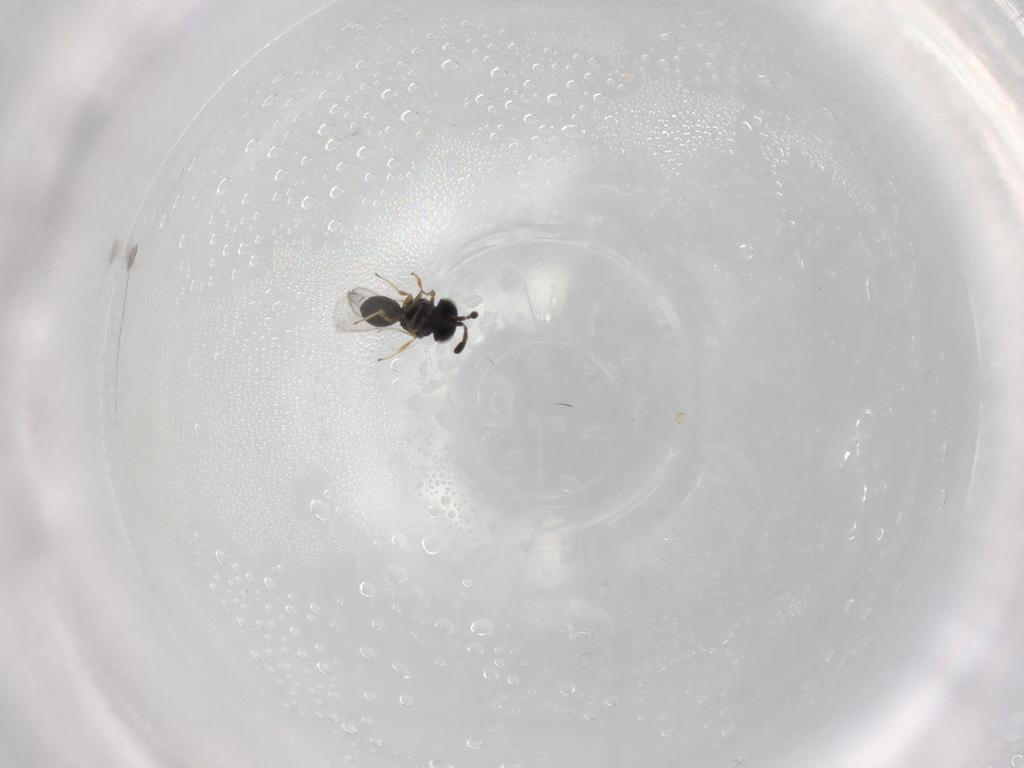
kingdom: Animalia
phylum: Arthropoda
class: Insecta
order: Hymenoptera
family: Scelionidae
